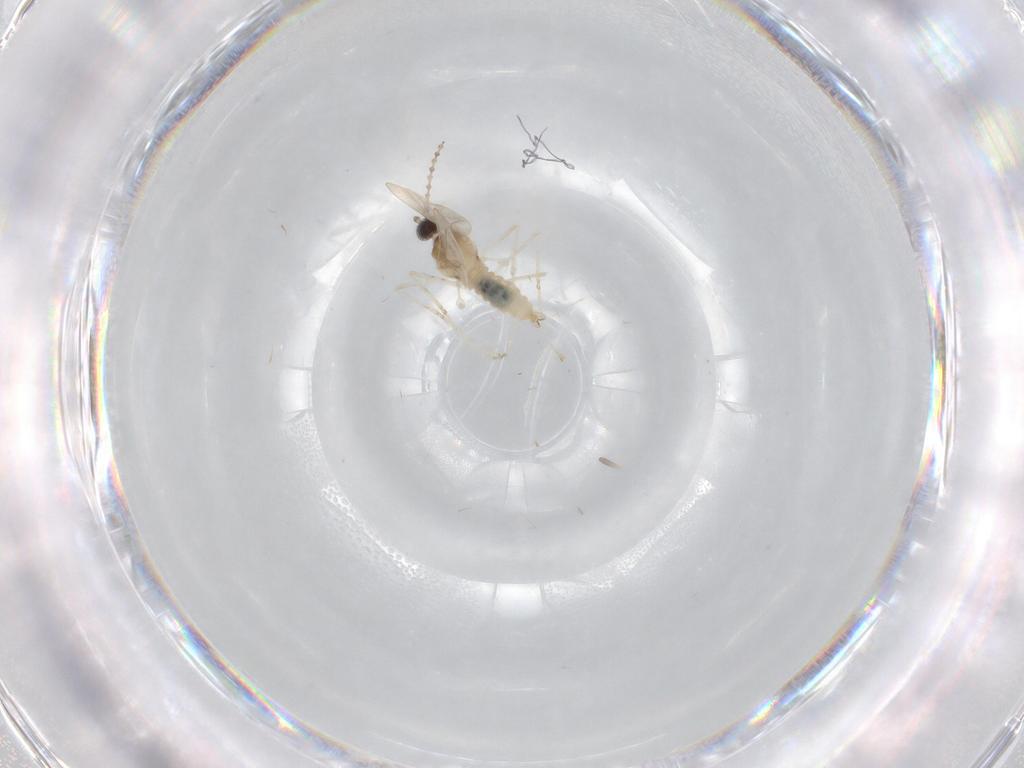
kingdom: Animalia
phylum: Arthropoda
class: Insecta
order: Diptera
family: Cecidomyiidae
